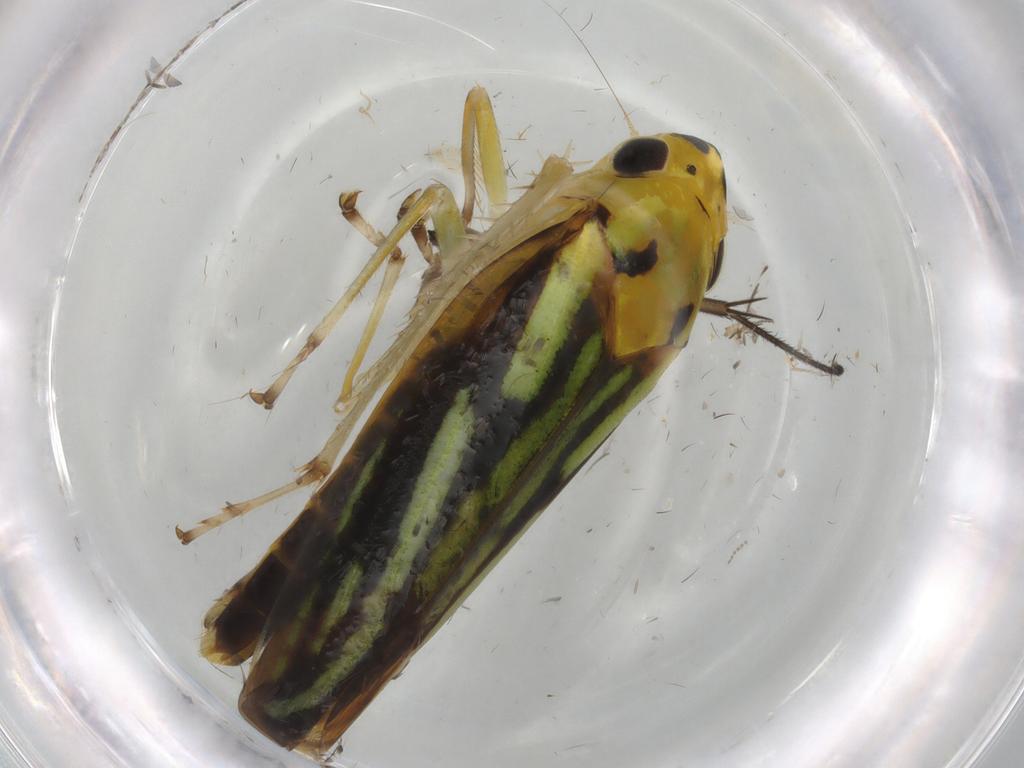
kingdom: Animalia
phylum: Arthropoda
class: Insecta
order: Hemiptera
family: Cicadellidae
